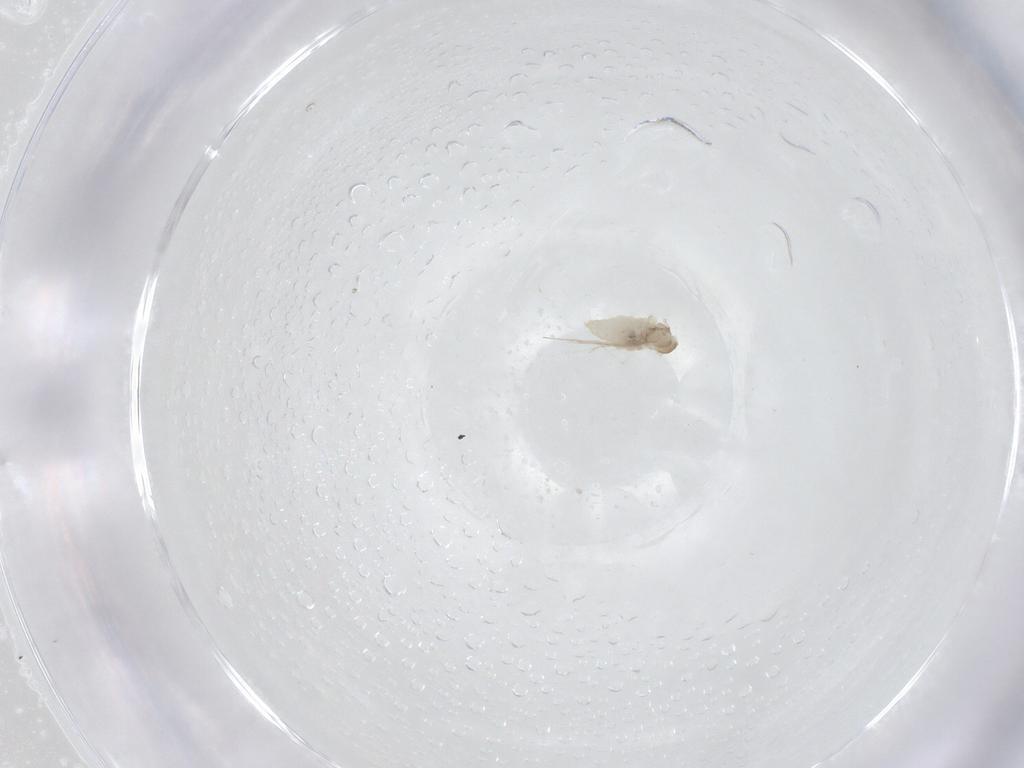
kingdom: Animalia
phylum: Arthropoda
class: Insecta
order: Diptera
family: Cecidomyiidae
